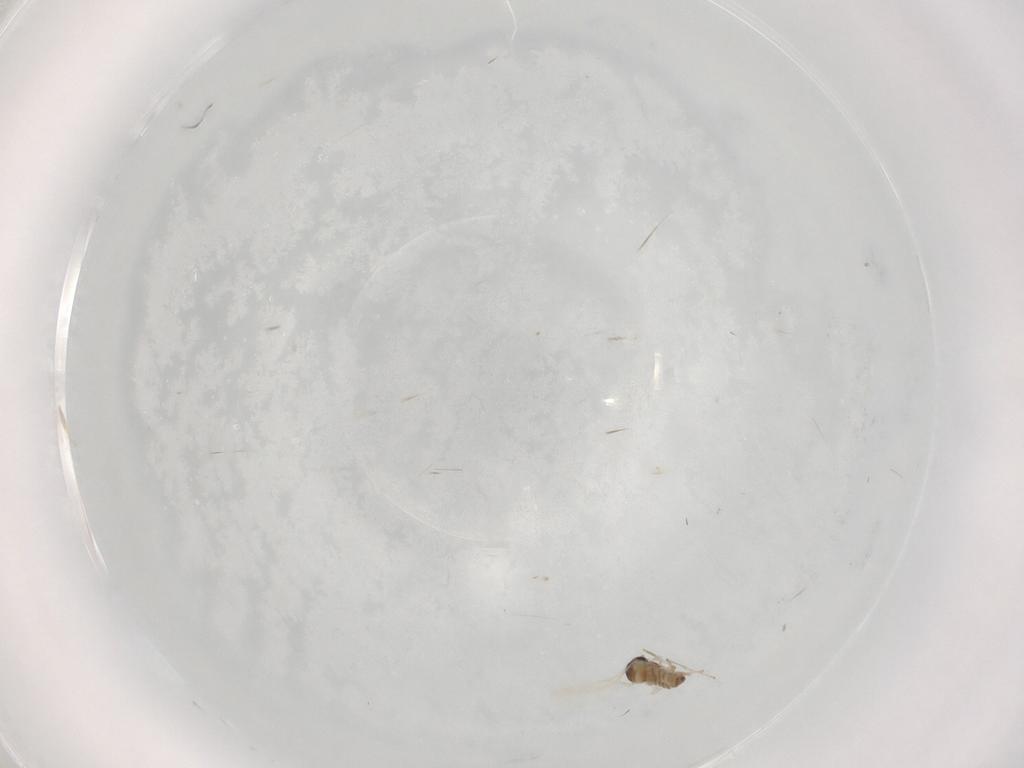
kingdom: Animalia
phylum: Arthropoda
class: Insecta
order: Diptera
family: Cecidomyiidae
